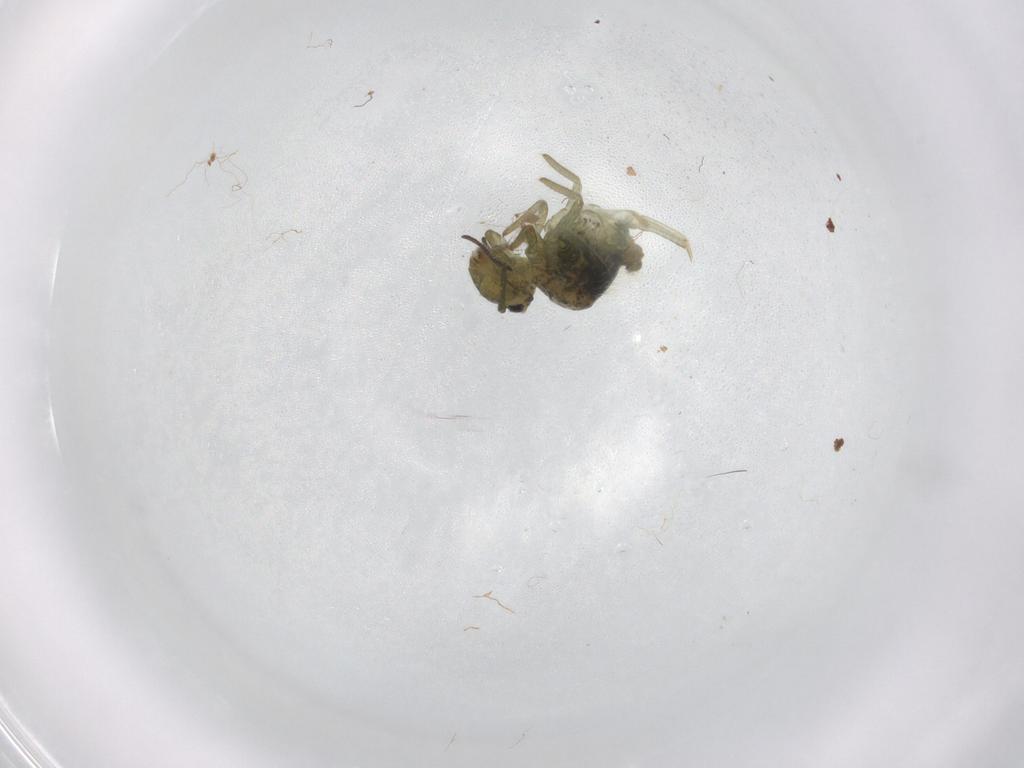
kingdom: Animalia
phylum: Arthropoda
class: Collembola
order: Symphypleona
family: Sminthuridae
